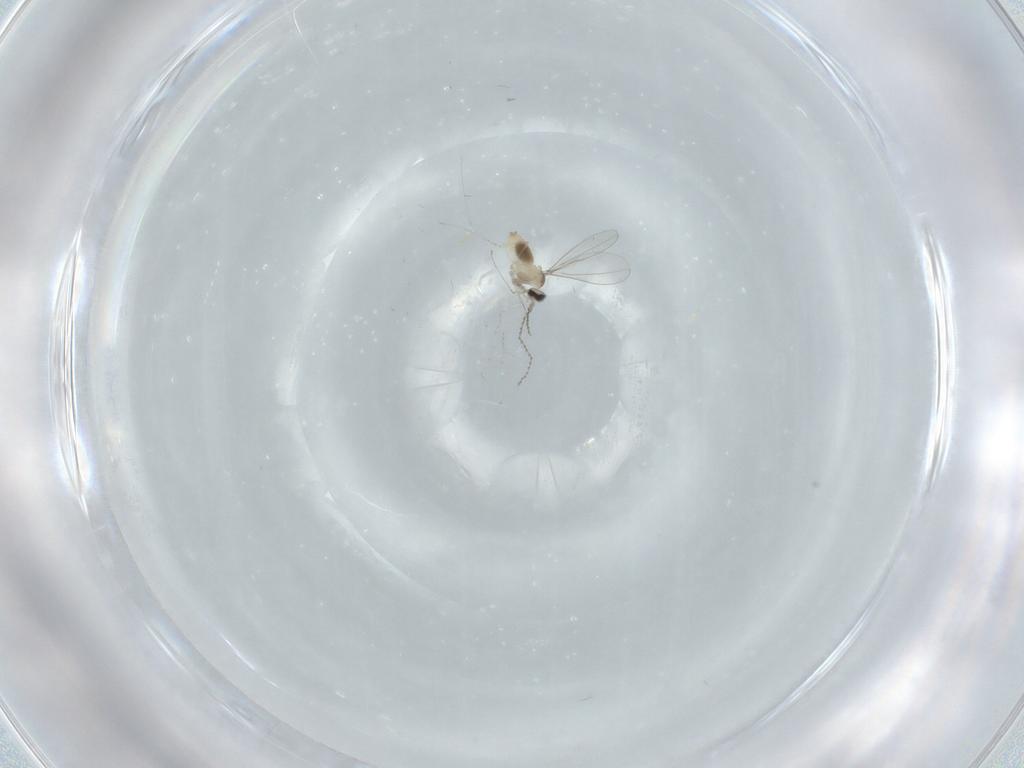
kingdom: Animalia
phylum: Arthropoda
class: Insecta
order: Diptera
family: Cecidomyiidae
